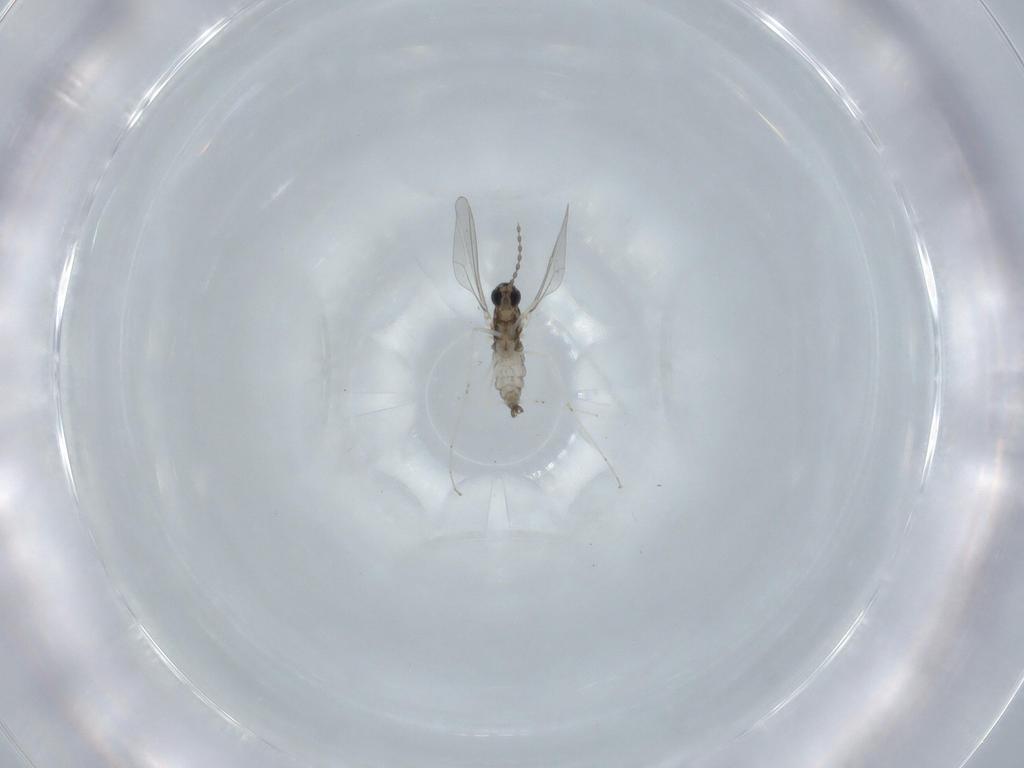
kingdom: Animalia
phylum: Arthropoda
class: Insecta
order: Diptera
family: Cecidomyiidae
